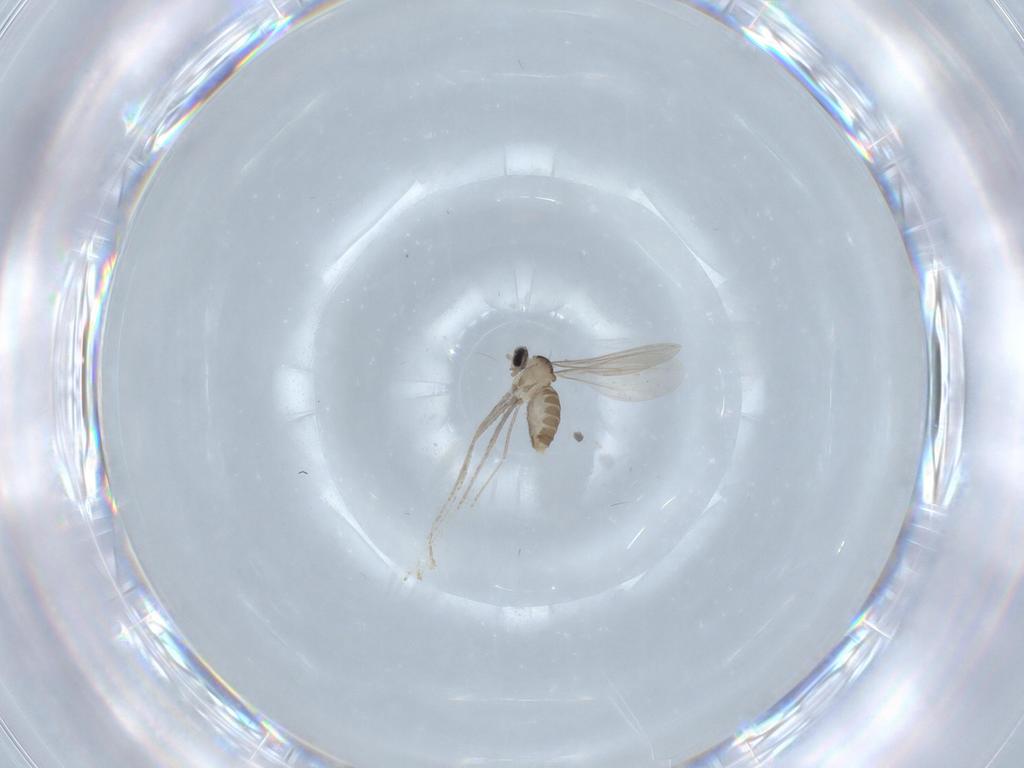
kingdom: Animalia
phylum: Arthropoda
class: Insecta
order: Diptera
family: Cecidomyiidae
